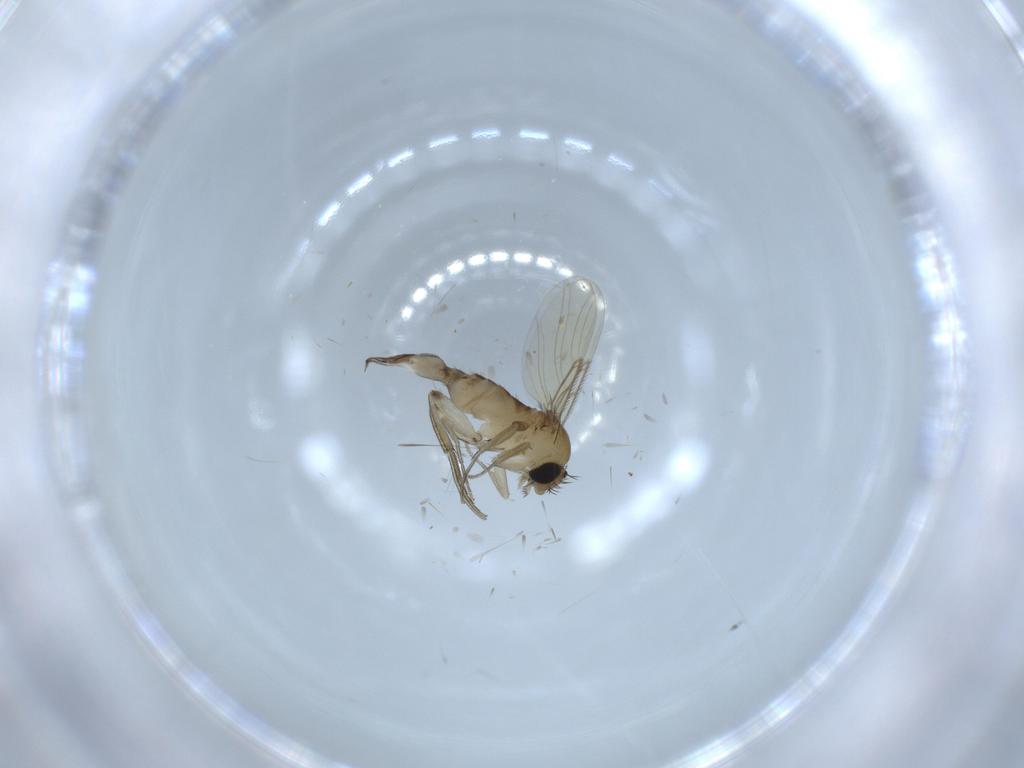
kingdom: Animalia
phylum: Arthropoda
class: Insecta
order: Diptera
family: Phoridae
